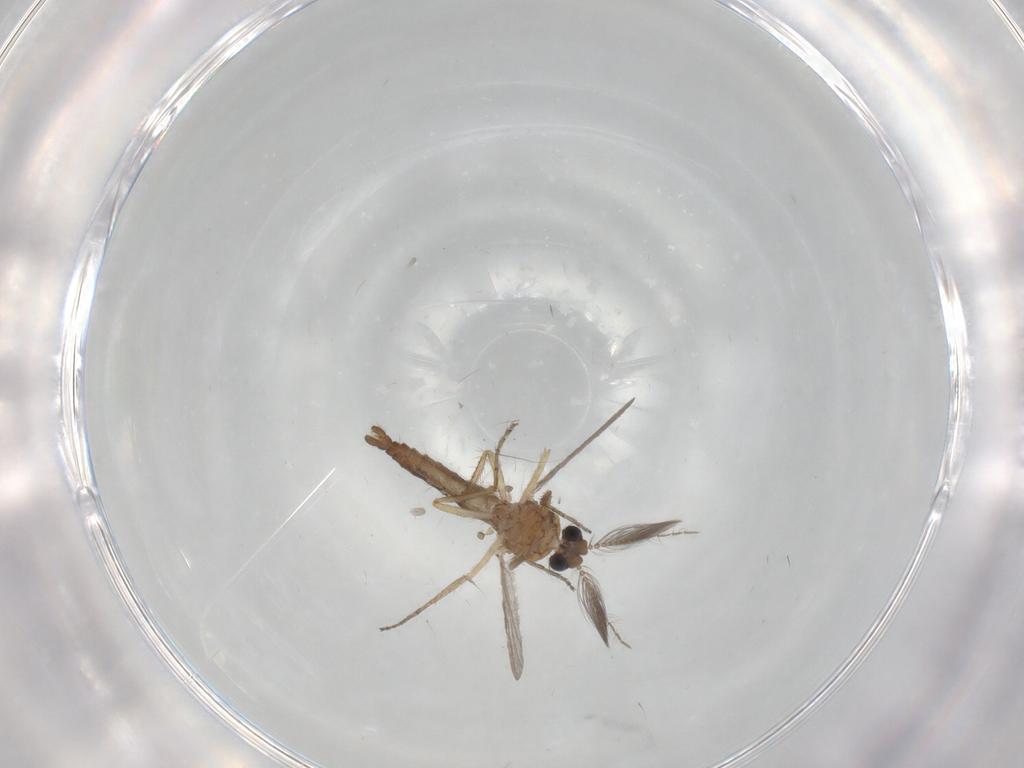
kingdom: Animalia
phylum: Arthropoda
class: Insecta
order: Diptera
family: Ceratopogonidae
